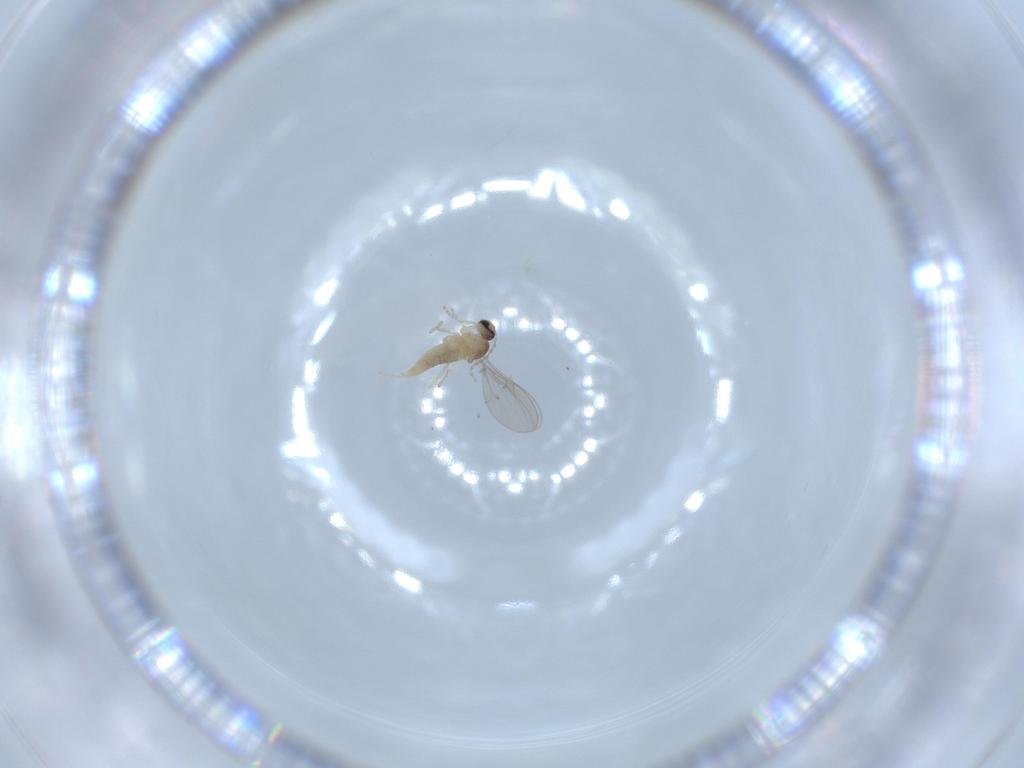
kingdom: Animalia
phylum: Arthropoda
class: Insecta
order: Diptera
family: Cecidomyiidae
